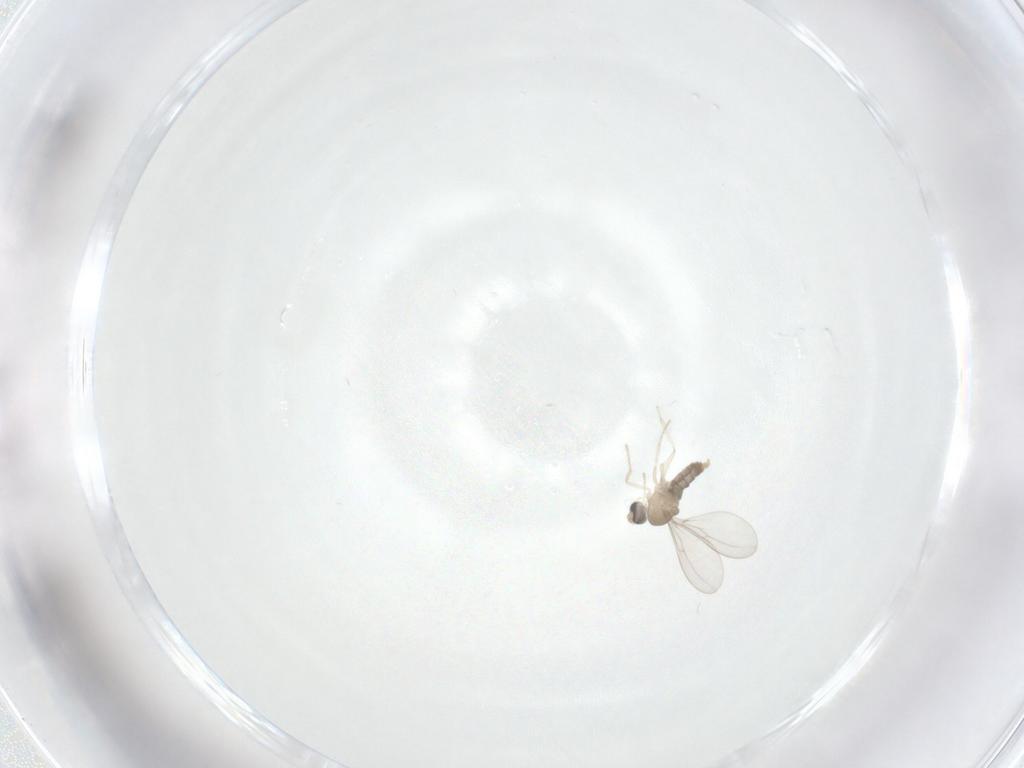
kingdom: Animalia
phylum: Arthropoda
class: Insecta
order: Diptera
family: Cecidomyiidae
